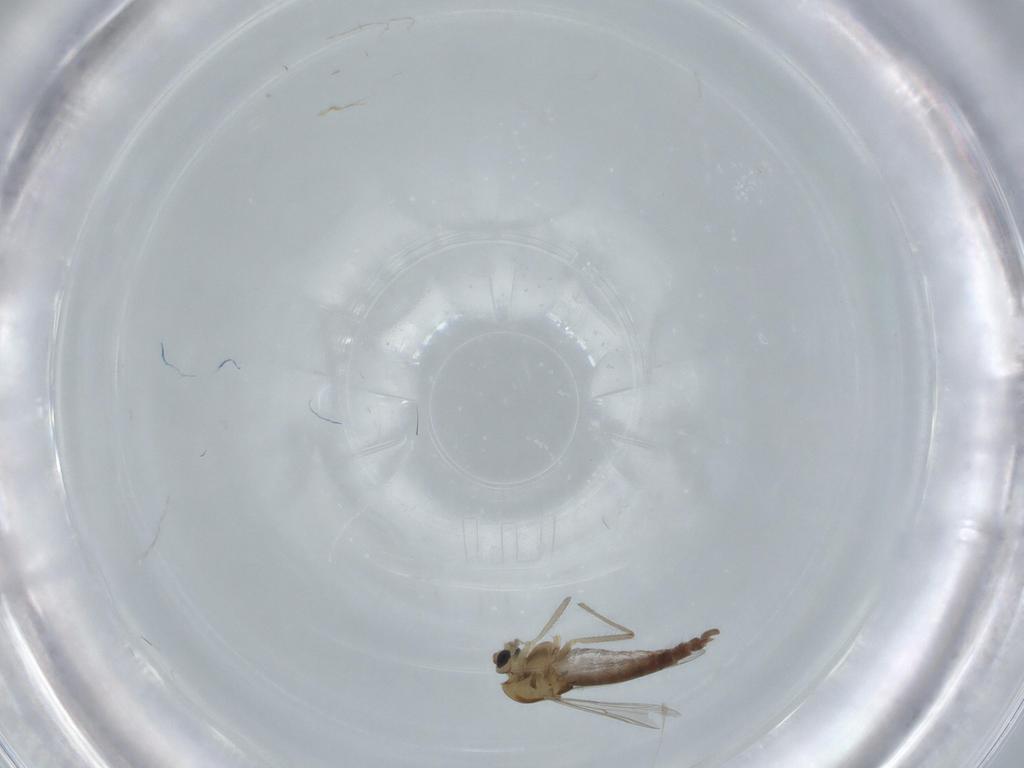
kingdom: Animalia
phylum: Arthropoda
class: Insecta
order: Diptera
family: Chironomidae
